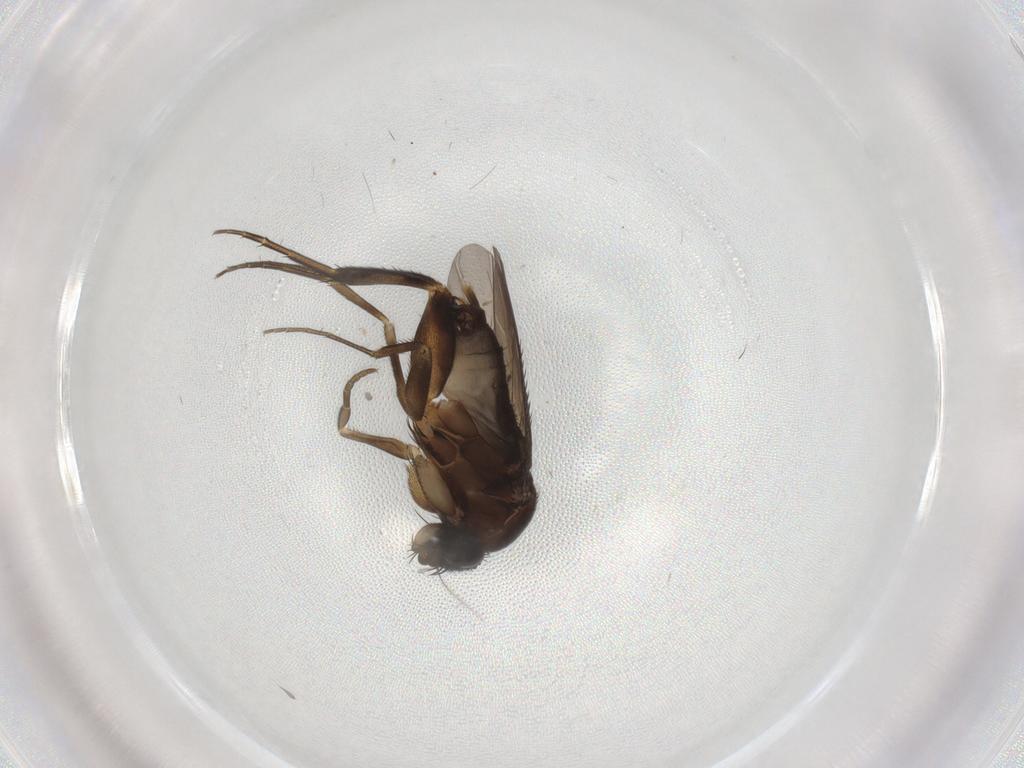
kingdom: Animalia
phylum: Arthropoda
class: Insecta
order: Diptera
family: Phoridae
